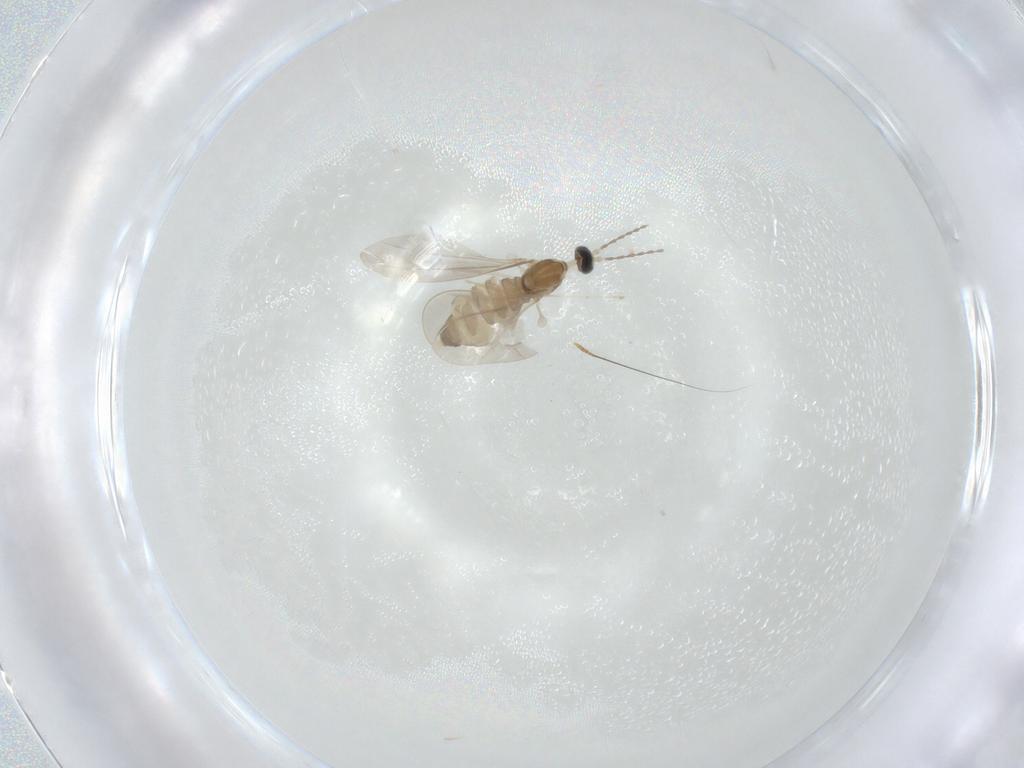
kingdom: Animalia
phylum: Arthropoda
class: Insecta
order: Diptera
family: Cecidomyiidae
